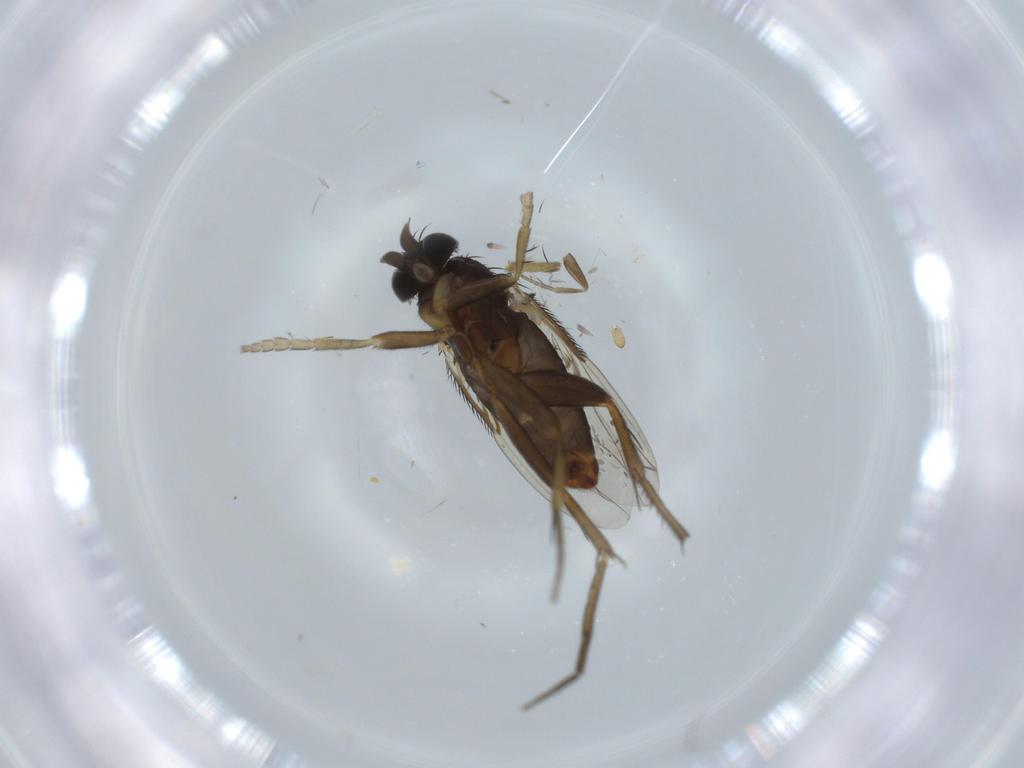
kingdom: Animalia
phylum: Arthropoda
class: Insecta
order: Diptera
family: Phoridae
